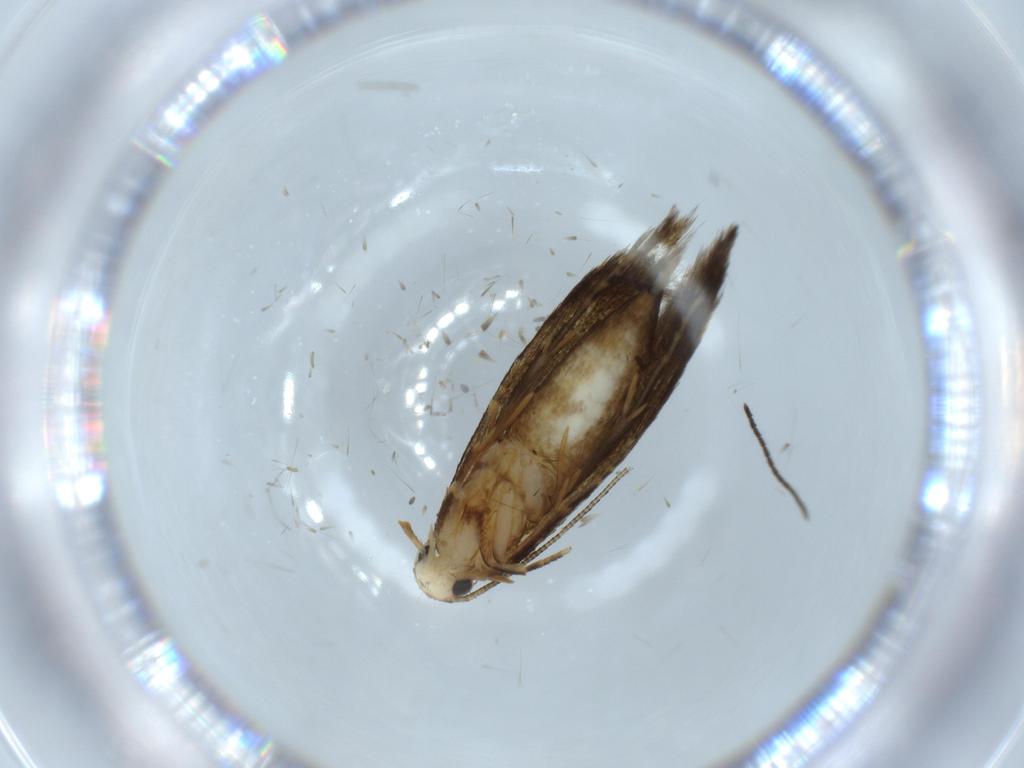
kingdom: Animalia
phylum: Arthropoda
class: Insecta
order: Lepidoptera
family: Tineidae
